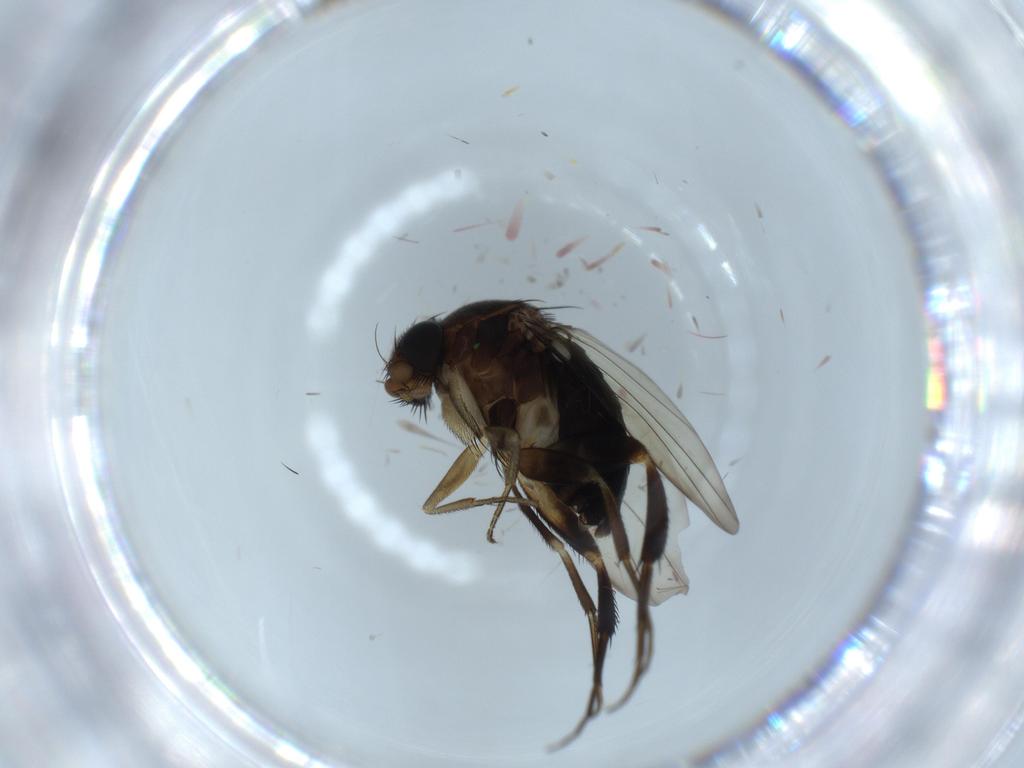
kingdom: Animalia
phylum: Arthropoda
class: Insecta
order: Diptera
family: Phoridae
